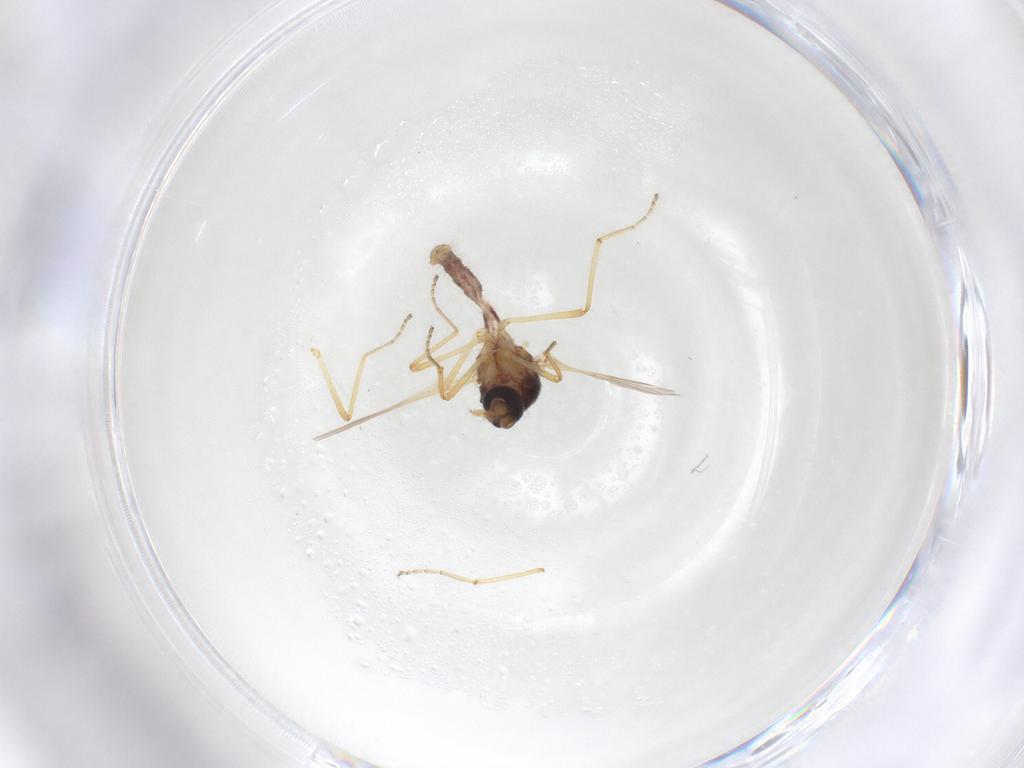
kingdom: Animalia
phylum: Arthropoda
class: Insecta
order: Diptera
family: Ceratopogonidae
